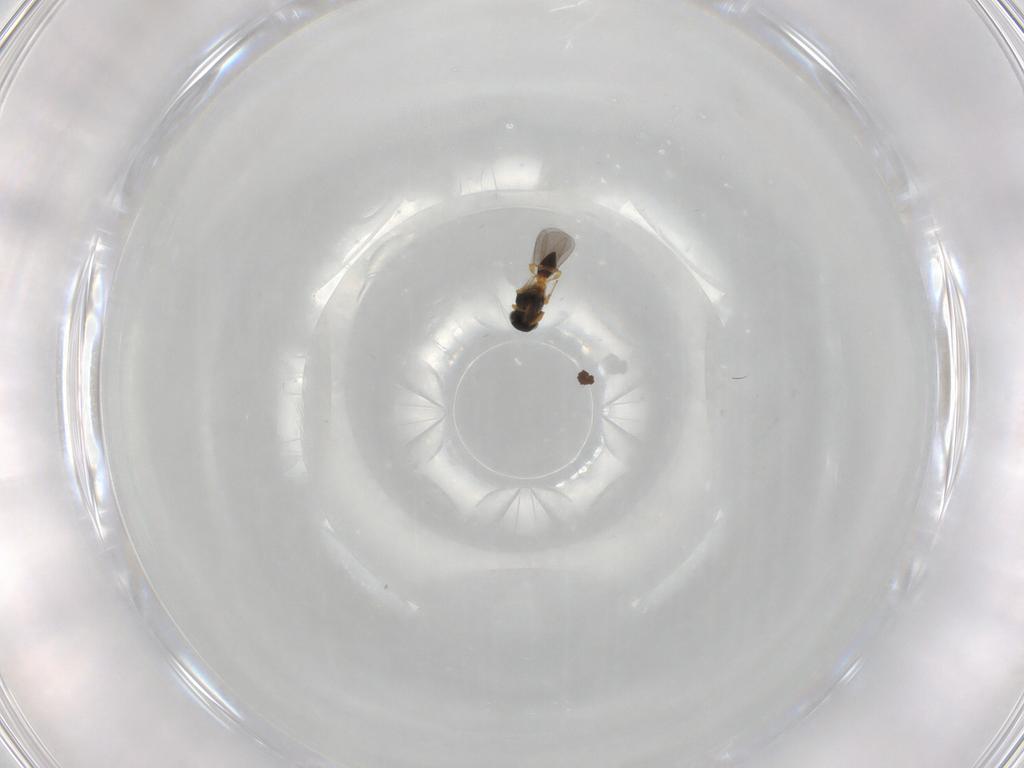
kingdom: Animalia
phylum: Arthropoda
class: Insecta
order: Hymenoptera
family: Platygastridae
